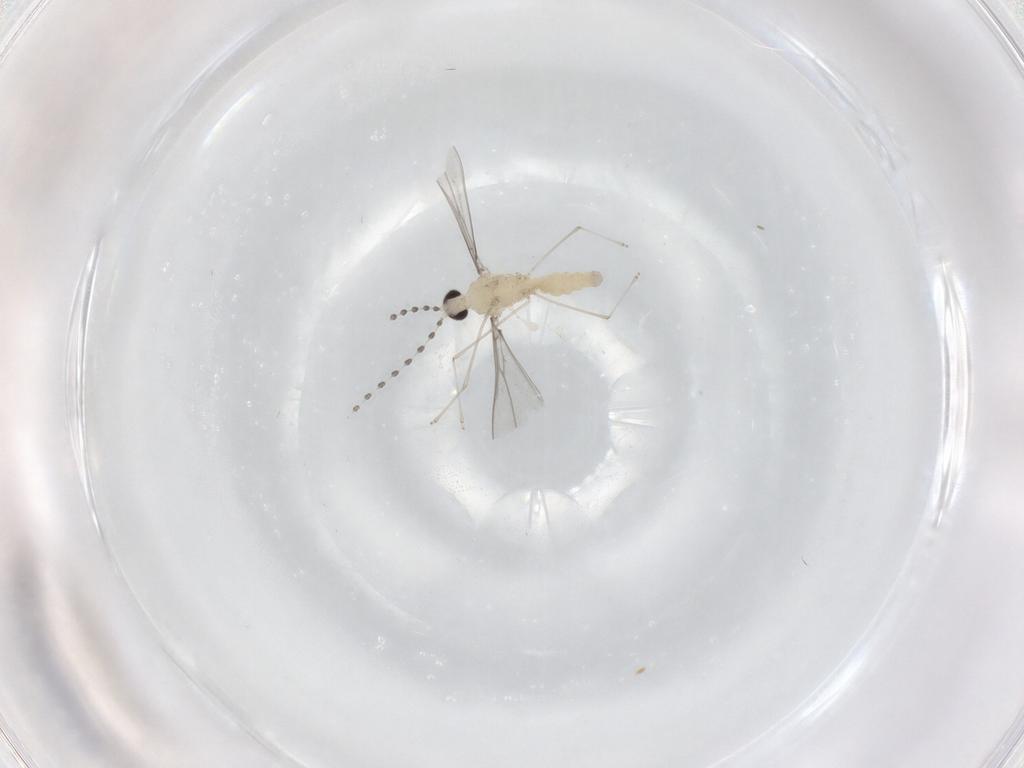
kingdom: Animalia
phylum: Arthropoda
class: Insecta
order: Diptera
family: Cecidomyiidae
